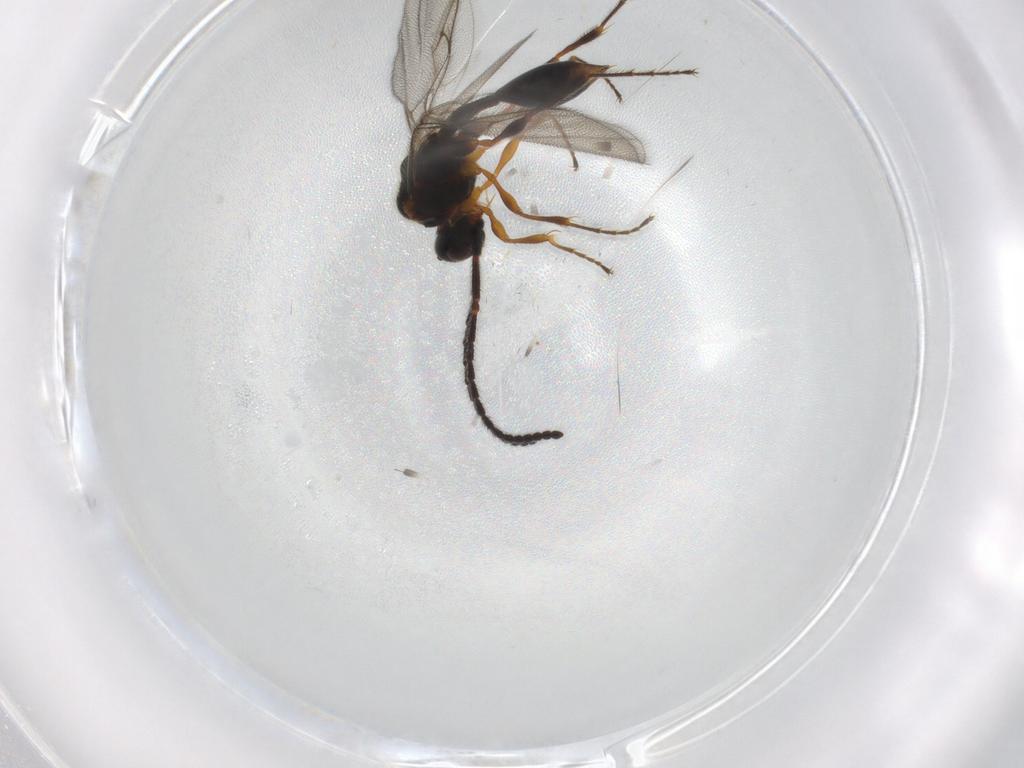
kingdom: Animalia
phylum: Arthropoda
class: Insecta
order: Hymenoptera
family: Diapriidae
